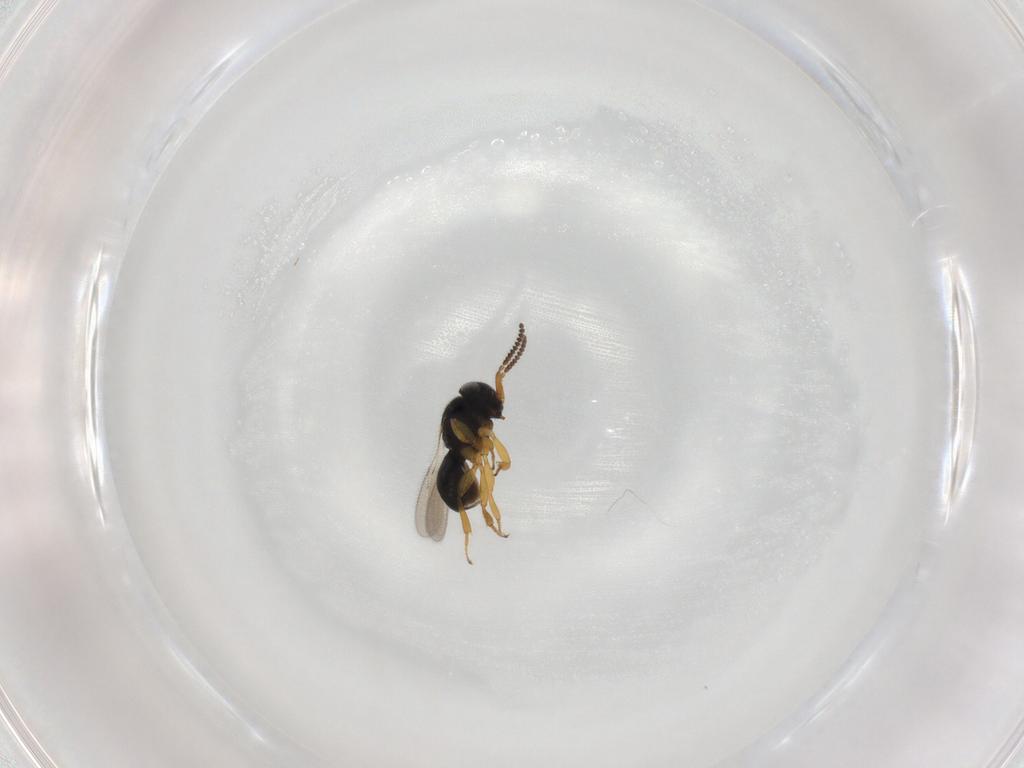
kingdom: Animalia
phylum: Arthropoda
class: Insecta
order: Hymenoptera
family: Scelionidae
